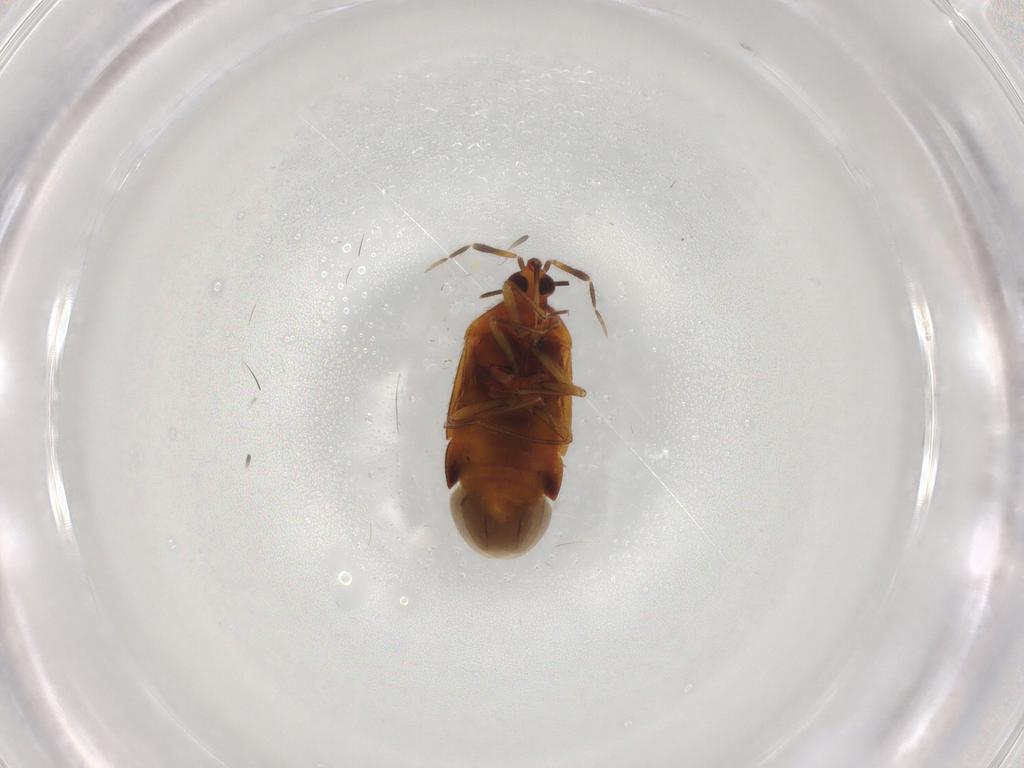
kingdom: Animalia
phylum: Arthropoda
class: Insecta
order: Hemiptera
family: Anthocoridae
